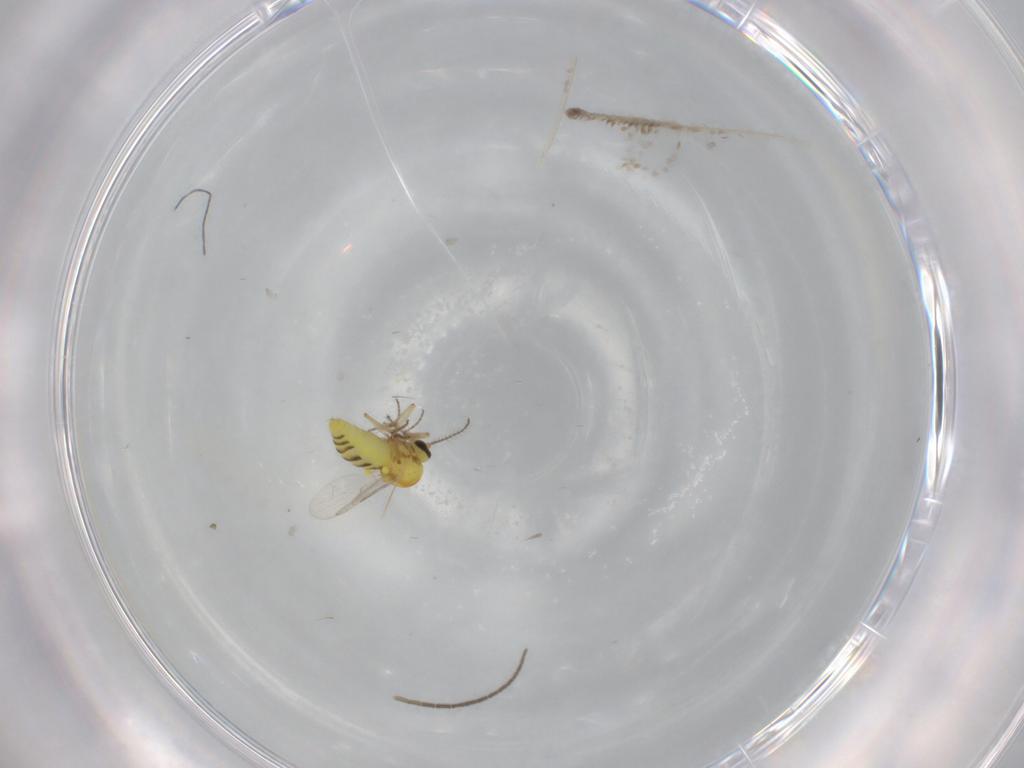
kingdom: Animalia
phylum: Arthropoda
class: Insecta
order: Diptera
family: Ceratopogonidae
